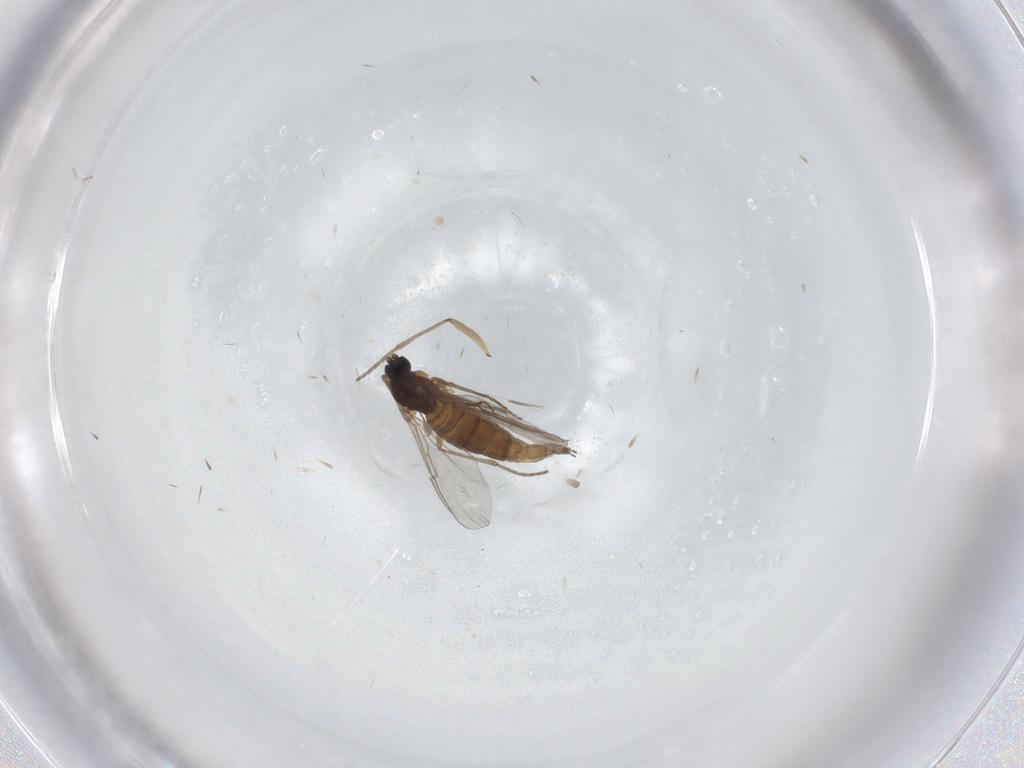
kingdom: Animalia
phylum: Arthropoda
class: Insecta
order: Diptera
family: Sciaridae
